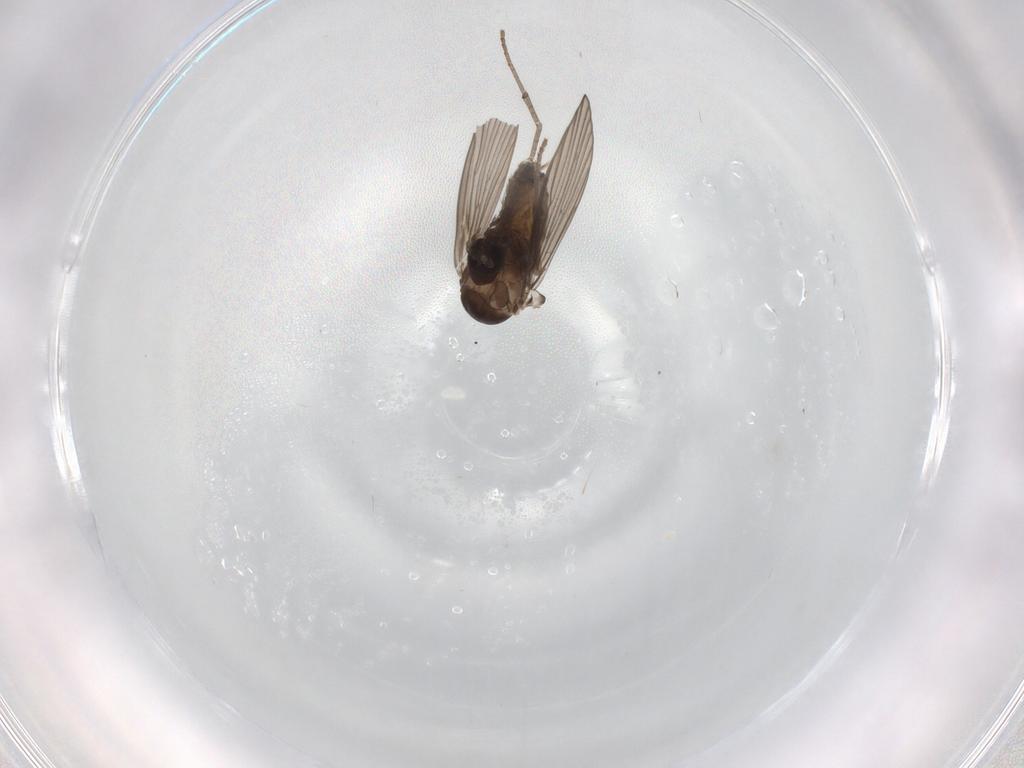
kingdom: Animalia
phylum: Arthropoda
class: Insecta
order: Diptera
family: Psychodidae
